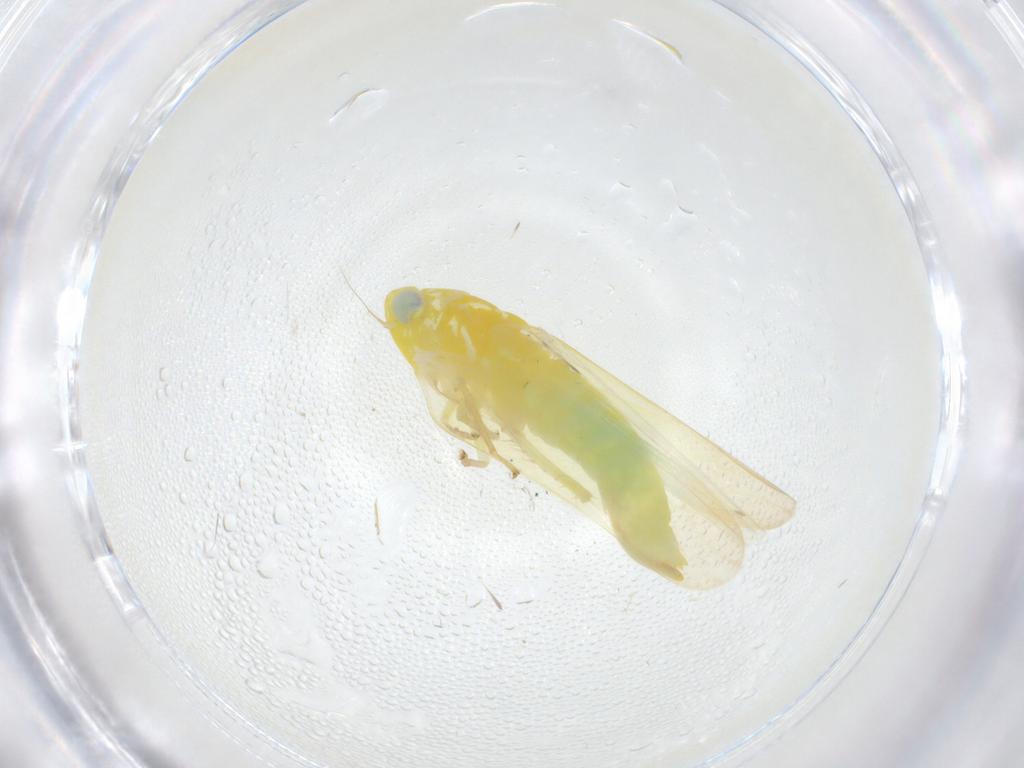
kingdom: Animalia
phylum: Arthropoda
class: Insecta
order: Hemiptera
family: Cicadellidae
